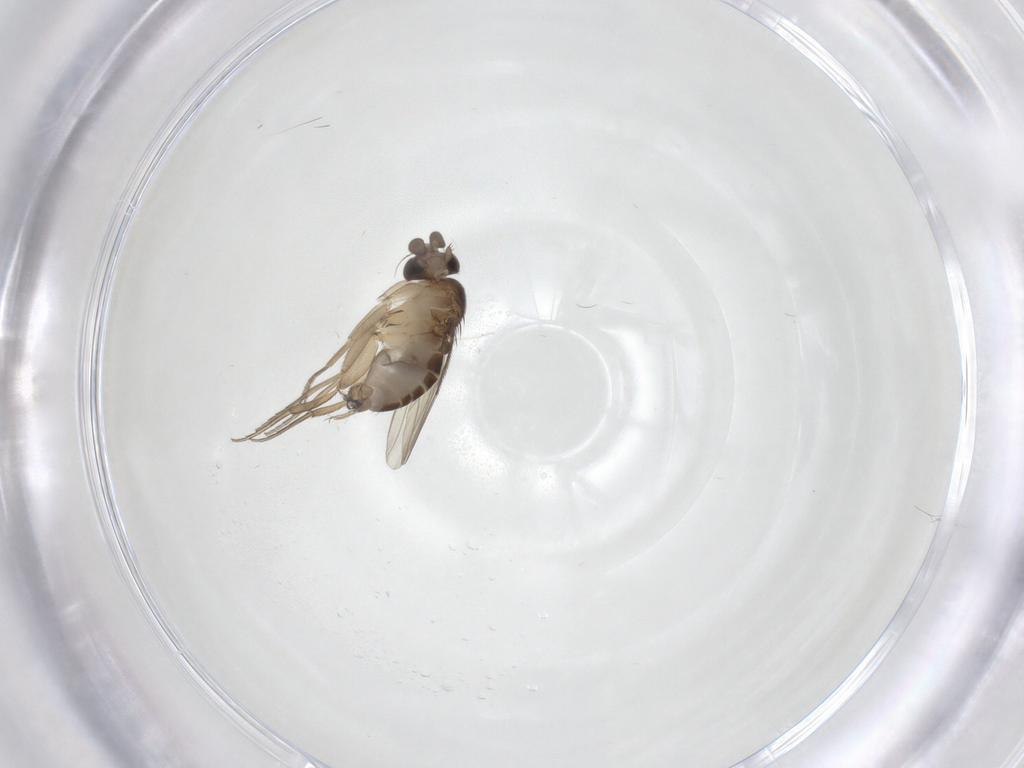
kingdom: Animalia
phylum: Arthropoda
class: Insecta
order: Diptera
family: Phoridae
